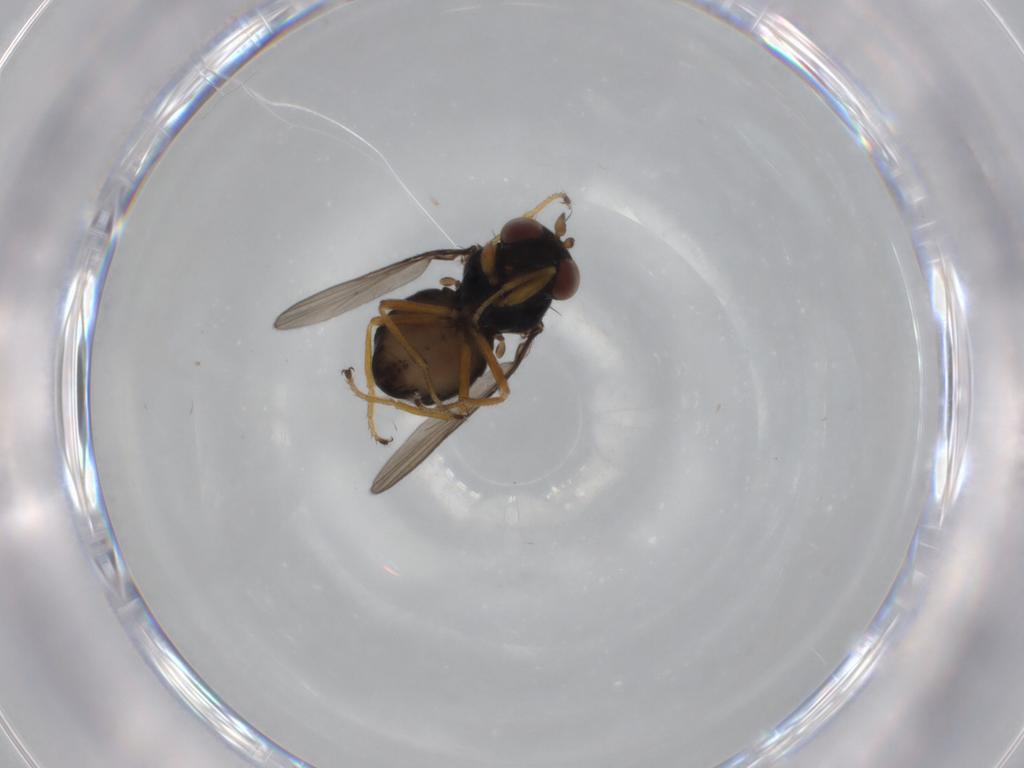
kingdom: Animalia
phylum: Arthropoda
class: Insecta
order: Diptera
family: Ephydridae
